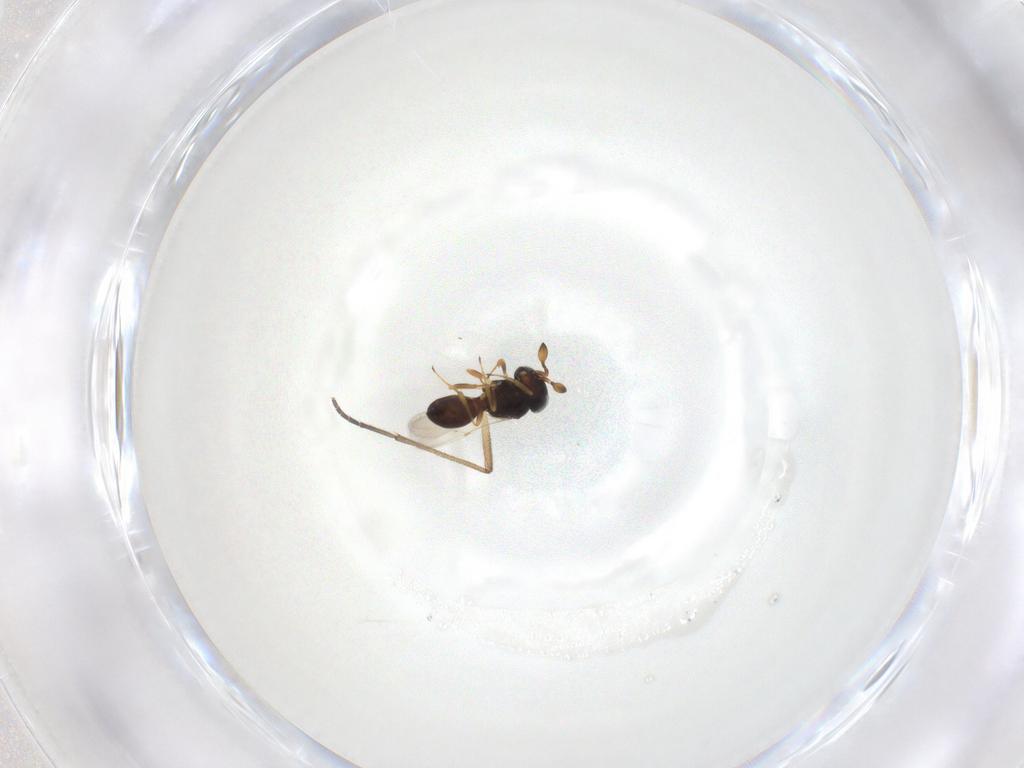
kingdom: Animalia
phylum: Arthropoda
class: Insecta
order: Hymenoptera
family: Scelionidae
